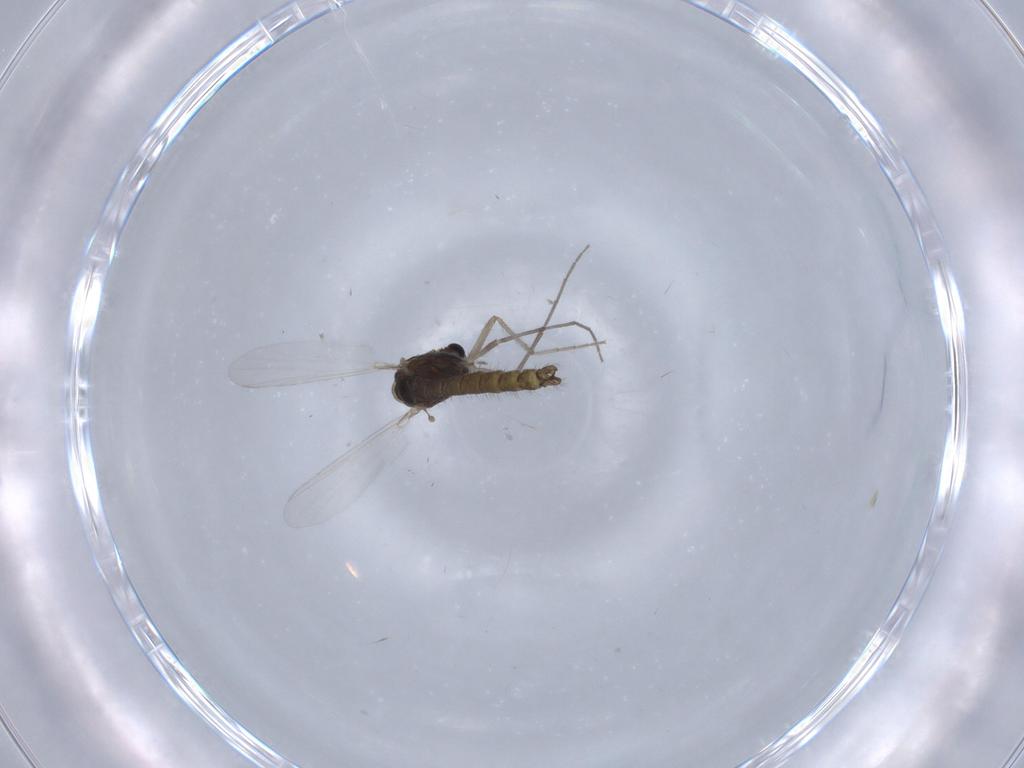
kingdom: Animalia
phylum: Arthropoda
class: Insecta
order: Diptera
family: Chironomidae
